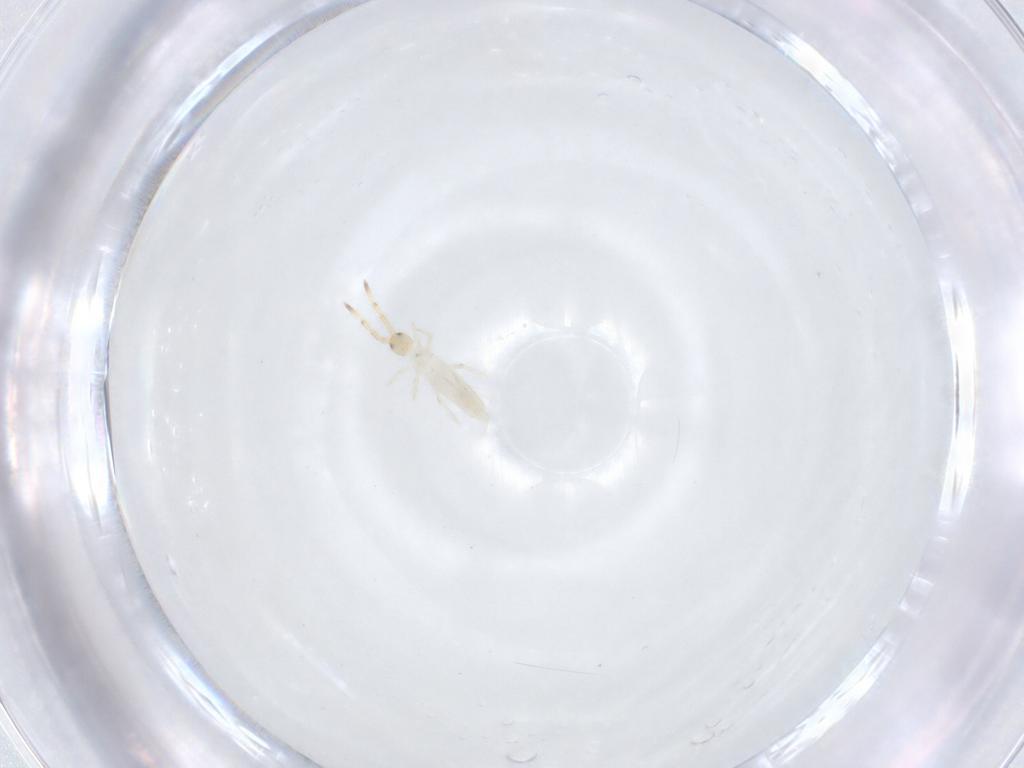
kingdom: Animalia
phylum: Arthropoda
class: Collembola
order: Entomobryomorpha
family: Entomobryidae
